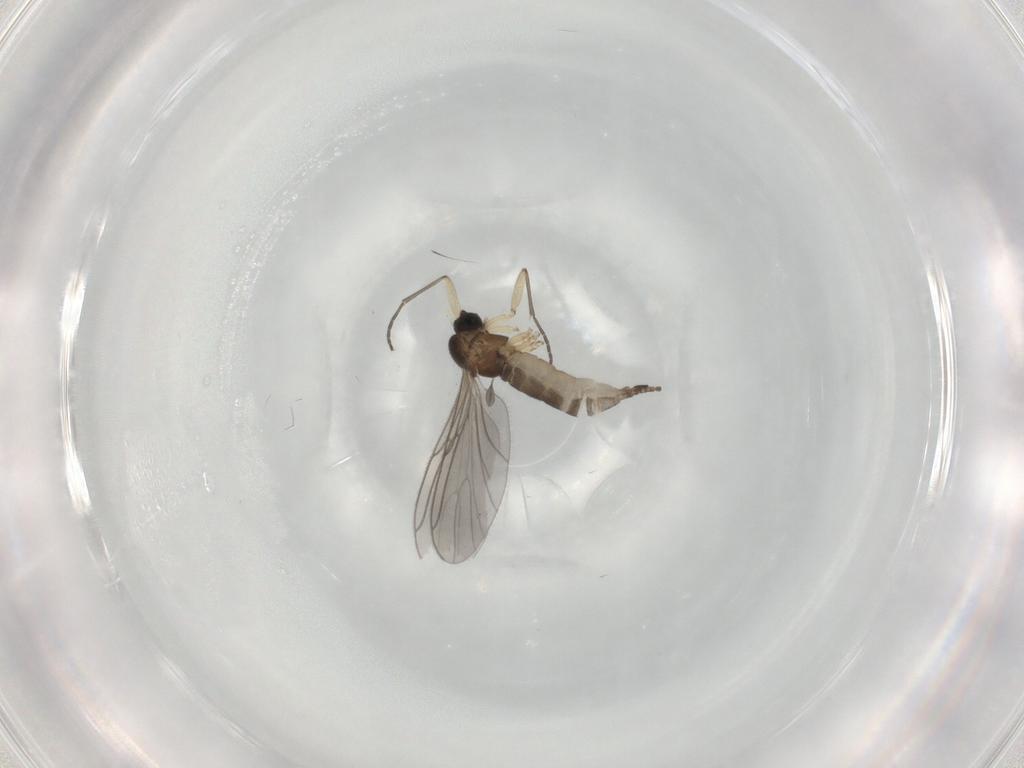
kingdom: Animalia
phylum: Arthropoda
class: Insecta
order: Diptera
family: Sciaridae
